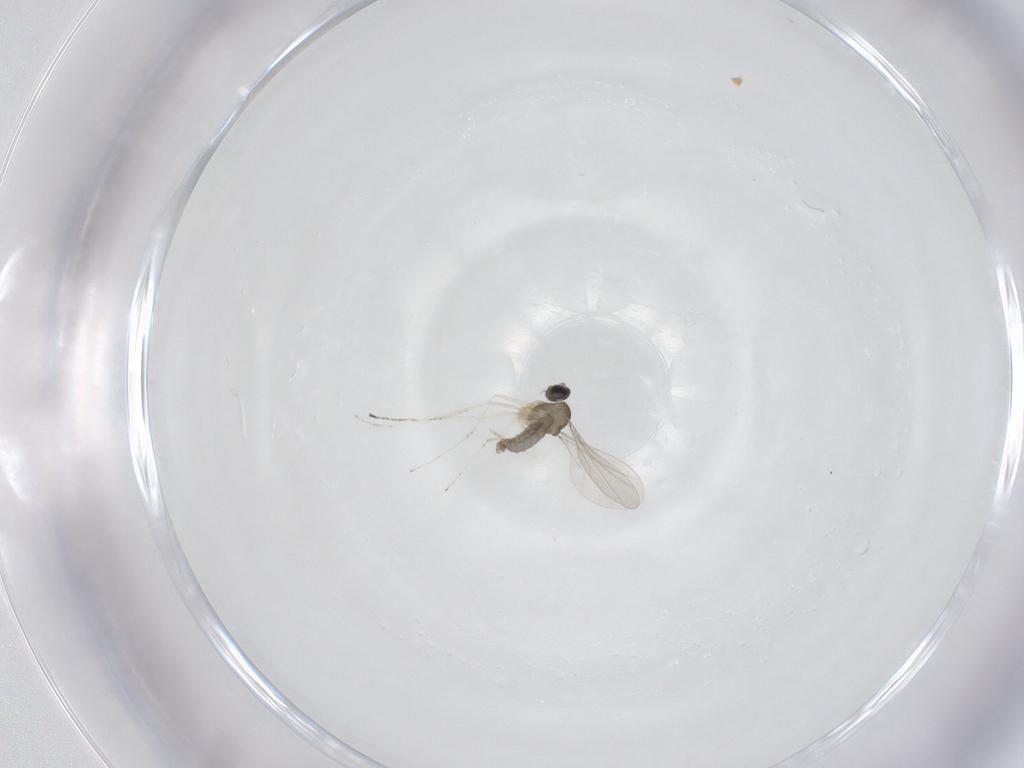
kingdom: Animalia
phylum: Arthropoda
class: Insecta
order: Diptera
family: Cecidomyiidae
